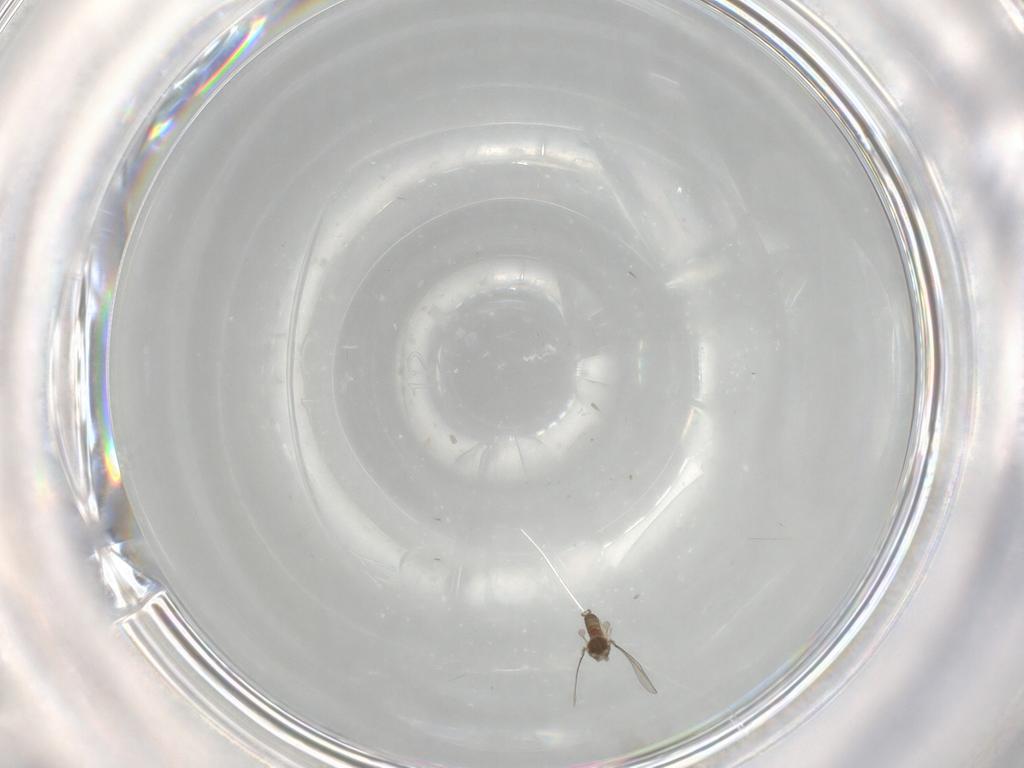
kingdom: Animalia
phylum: Arthropoda
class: Insecta
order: Diptera
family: Cecidomyiidae
